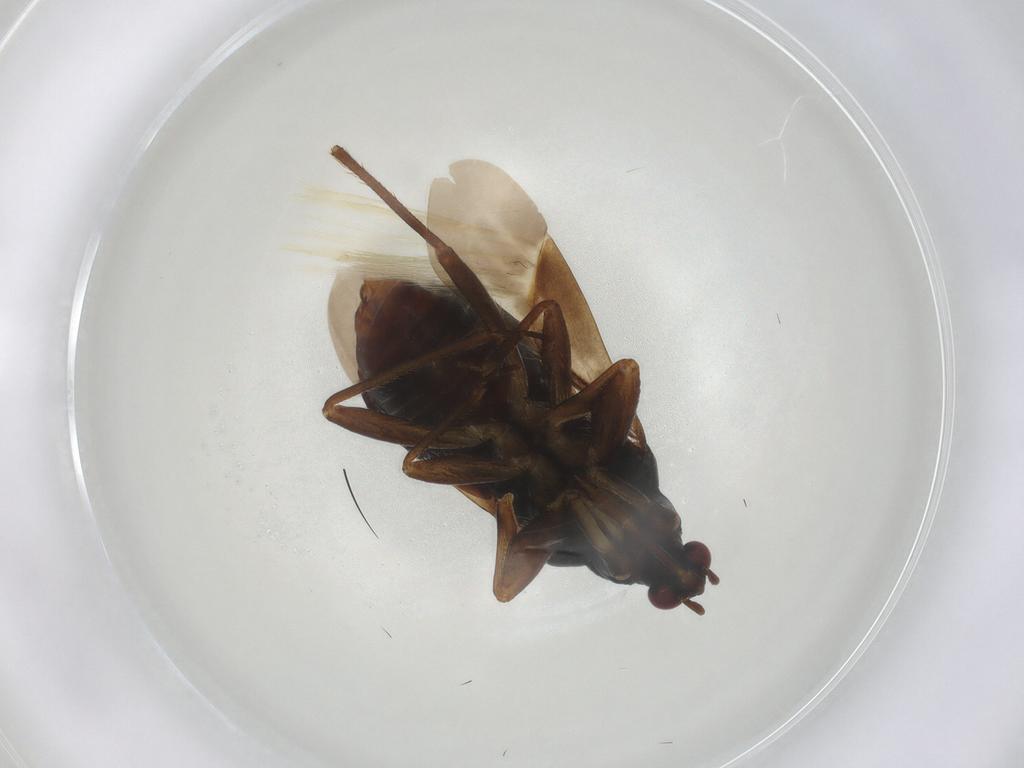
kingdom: Animalia
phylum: Arthropoda
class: Insecta
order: Hemiptera
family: Nabidae
